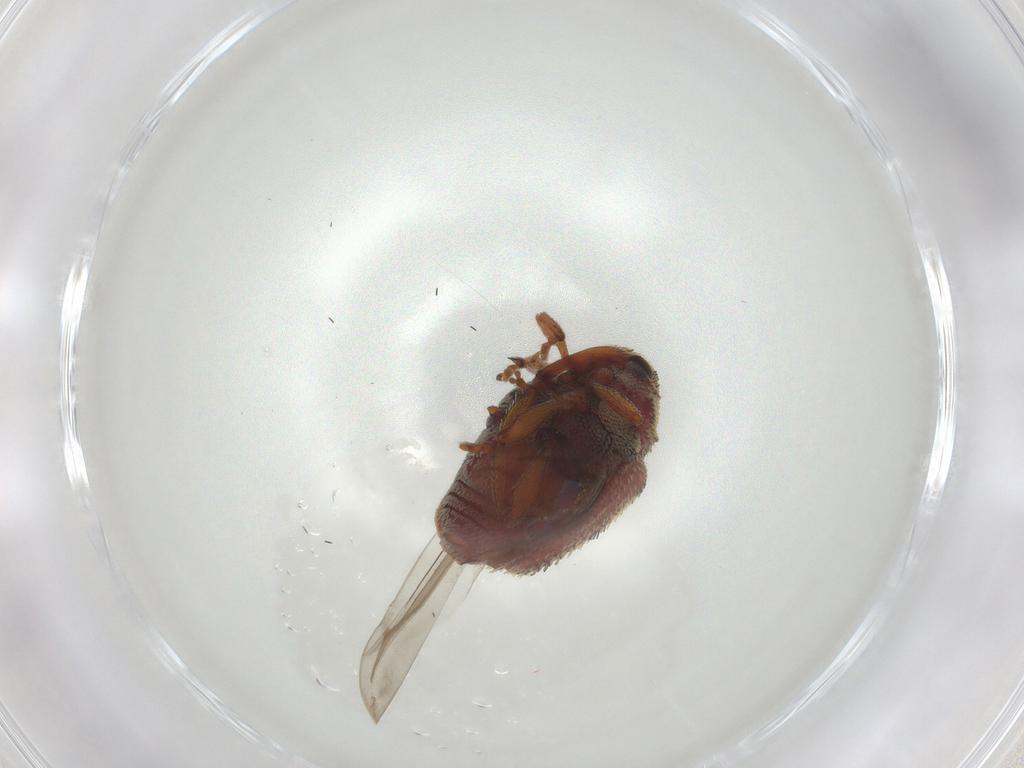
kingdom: Animalia
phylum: Arthropoda
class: Insecta
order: Coleoptera
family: Curculionidae
